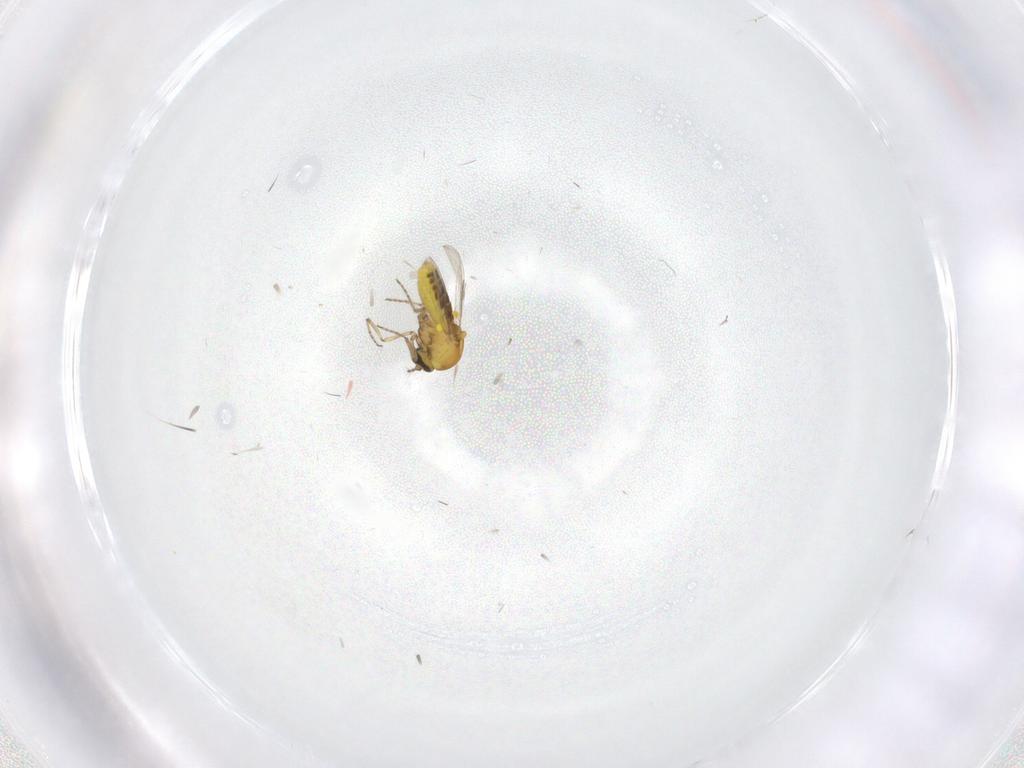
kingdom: Animalia
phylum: Arthropoda
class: Insecta
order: Diptera
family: Ceratopogonidae
